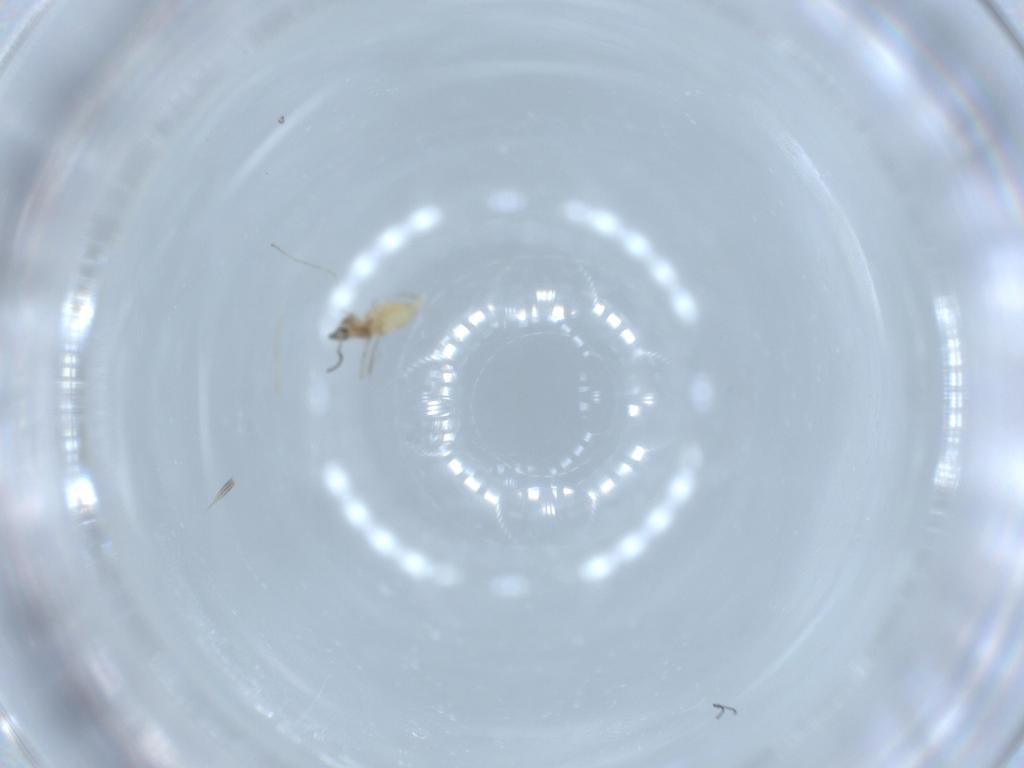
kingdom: Animalia
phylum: Arthropoda
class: Insecta
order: Diptera
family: Cecidomyiidae
